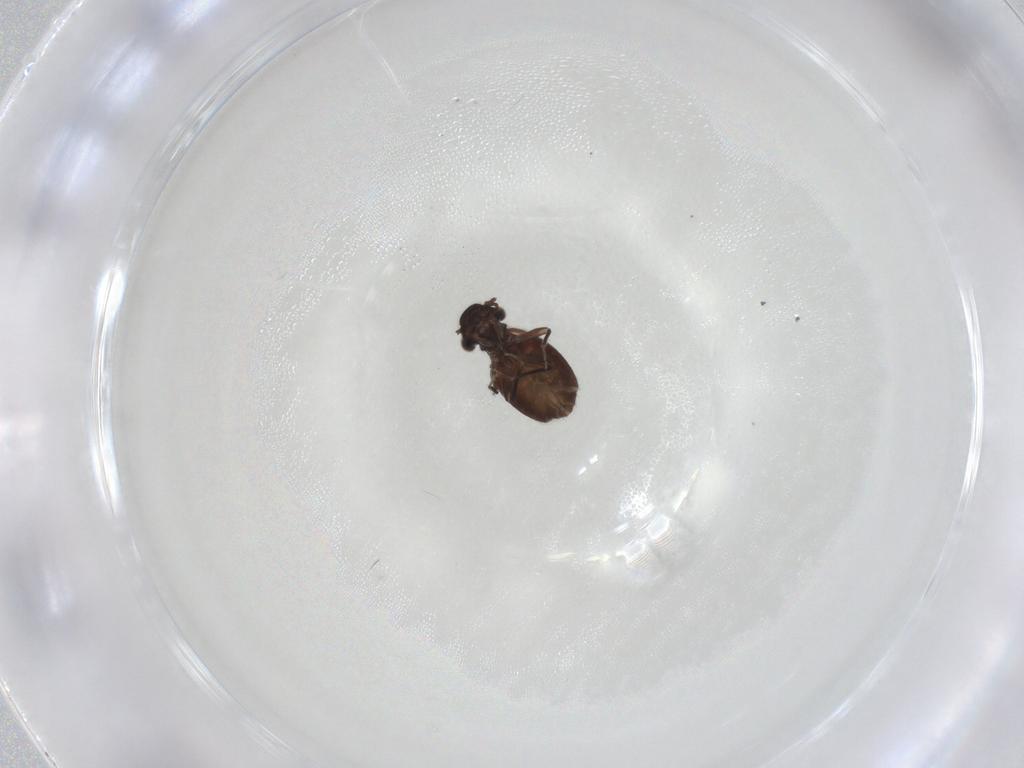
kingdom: Animalia
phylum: Arthropoda
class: Insecta
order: Psocodea
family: Trogiidae
